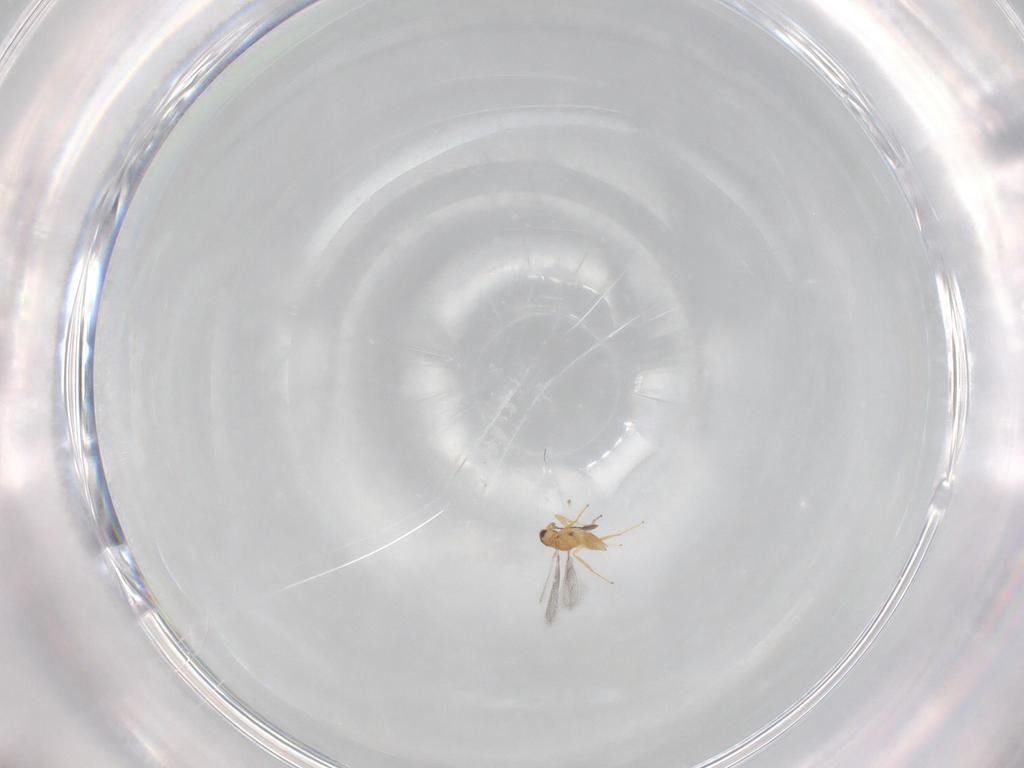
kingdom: Animalia
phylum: Arthropoda
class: Insecta
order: Hymenoptera
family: Mymaridae
